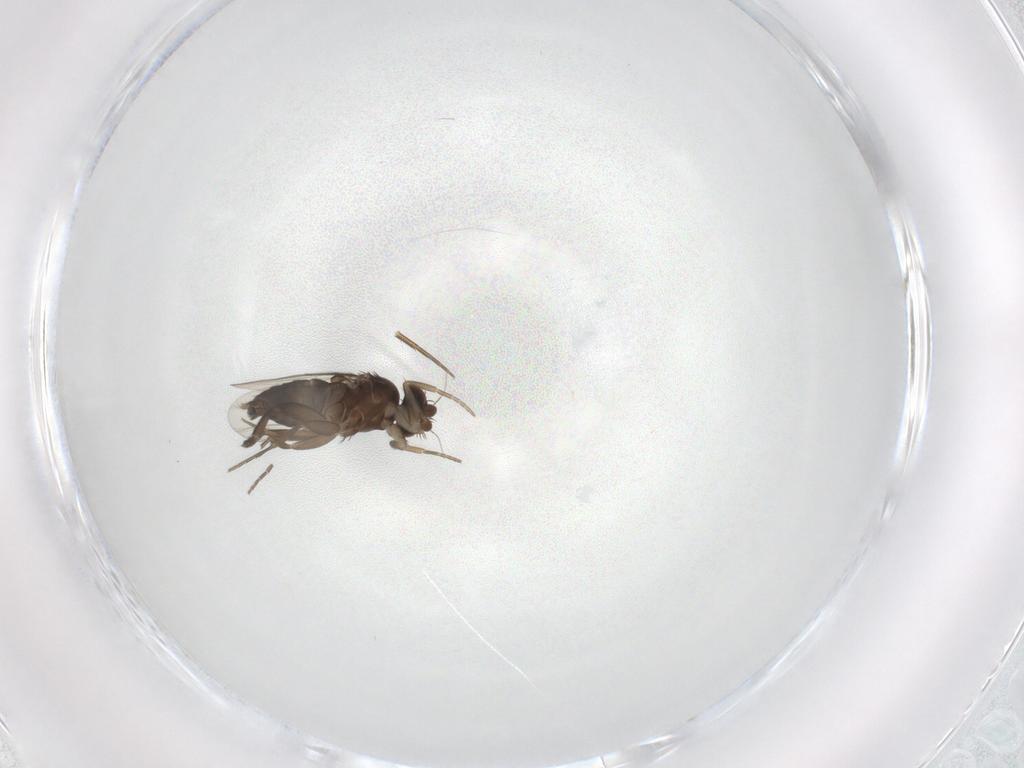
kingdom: Animalia
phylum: Arthropoda
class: Insecta
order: Diptera
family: Phoridae
